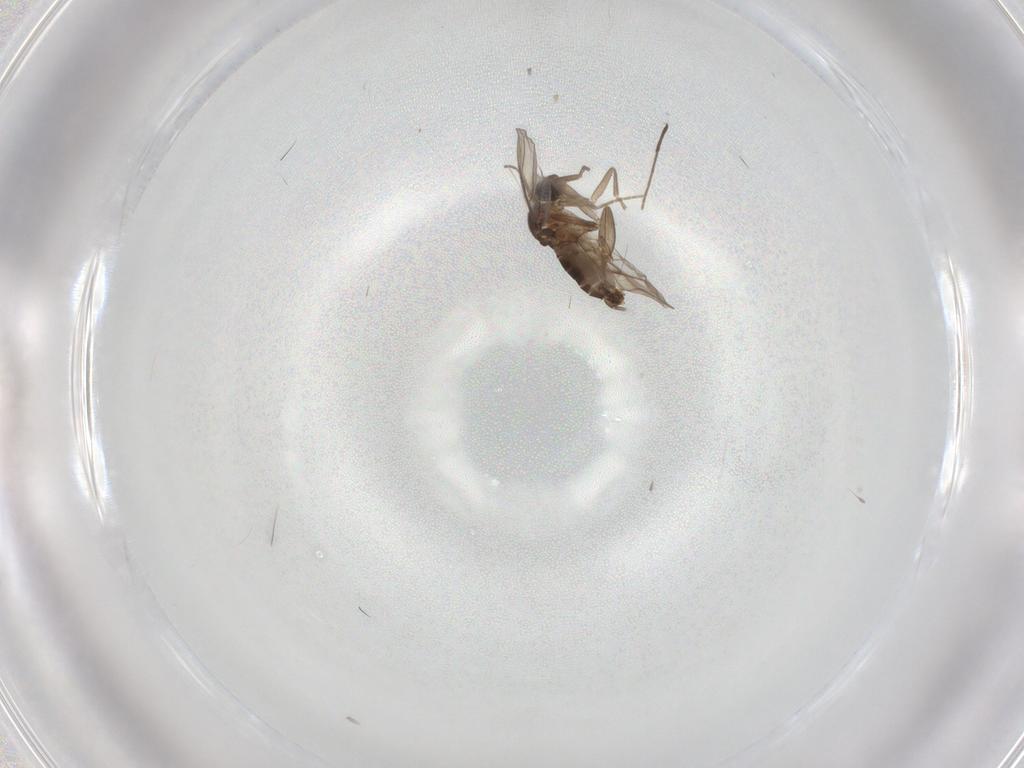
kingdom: Animalia
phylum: Arthropoda
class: Insecta
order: Diptera
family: Phoridae
